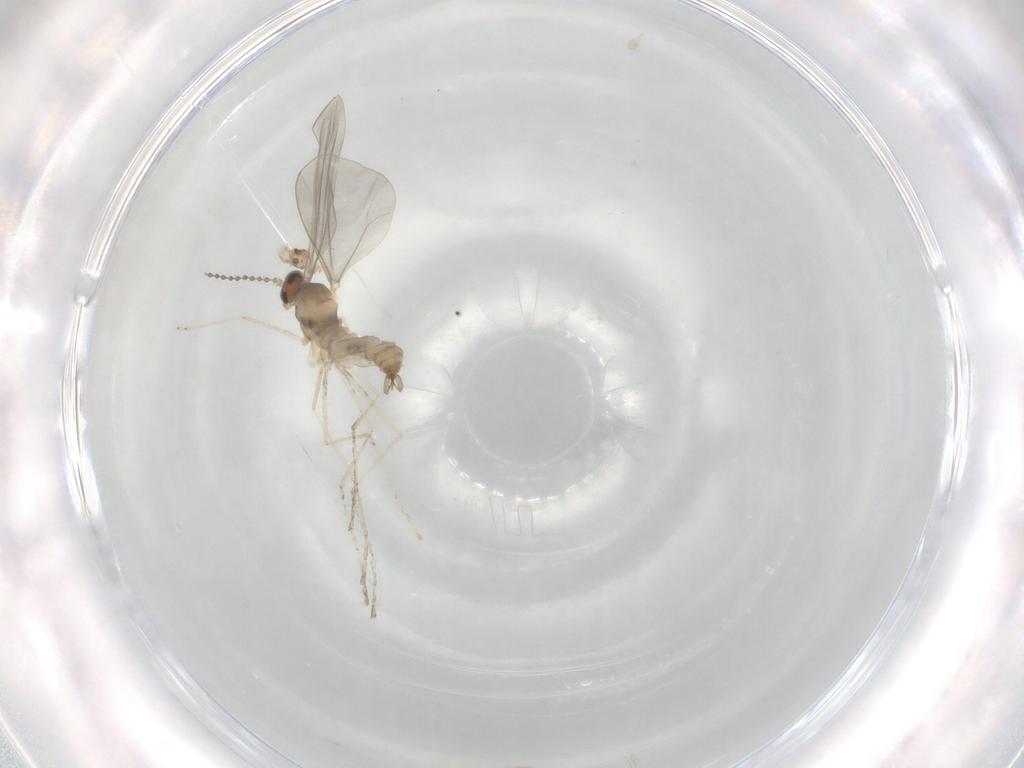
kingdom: Animalia
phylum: Arthropoda
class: Insecta
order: Diptera
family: Cecidomyiidae
